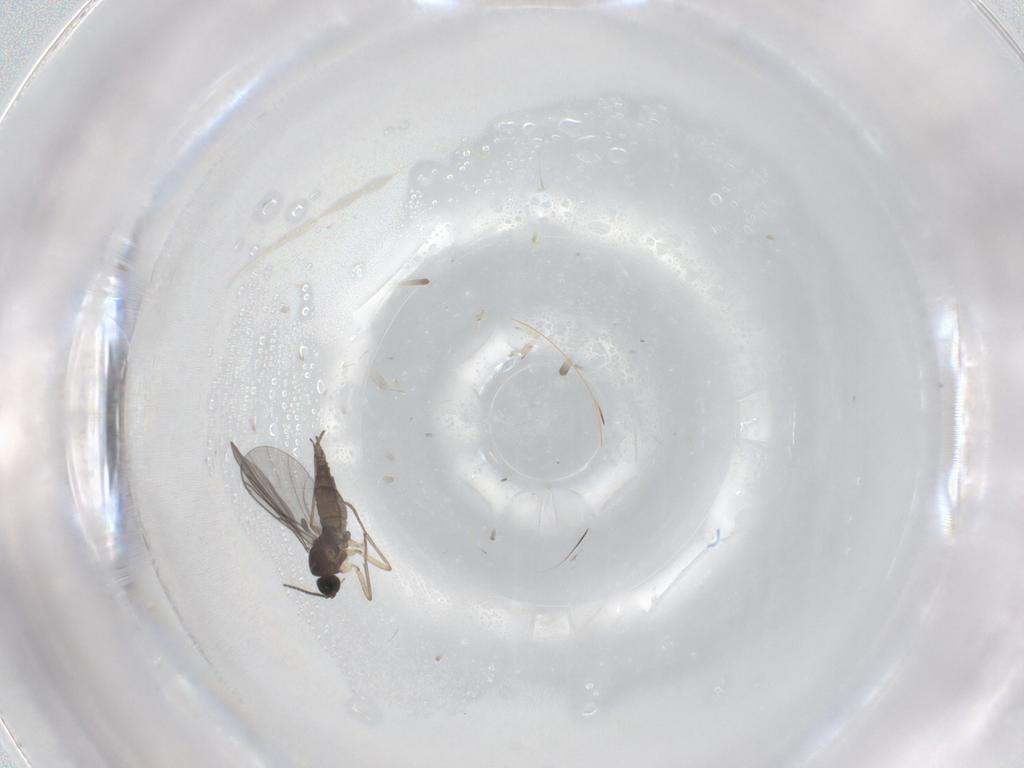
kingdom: Animalia
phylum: Arthropoda
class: Insecta
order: Diptera
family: Sciaridae
